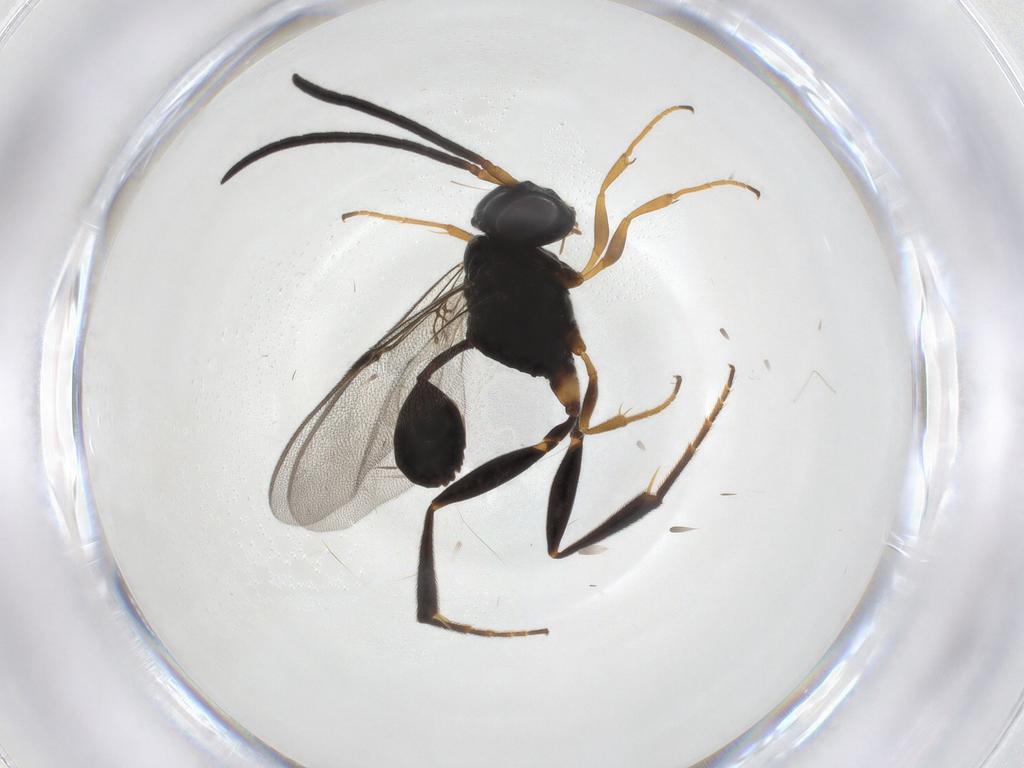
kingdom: Animalia
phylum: Arthropoda
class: Insecta
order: Hymenoptera
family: Evaniidae
